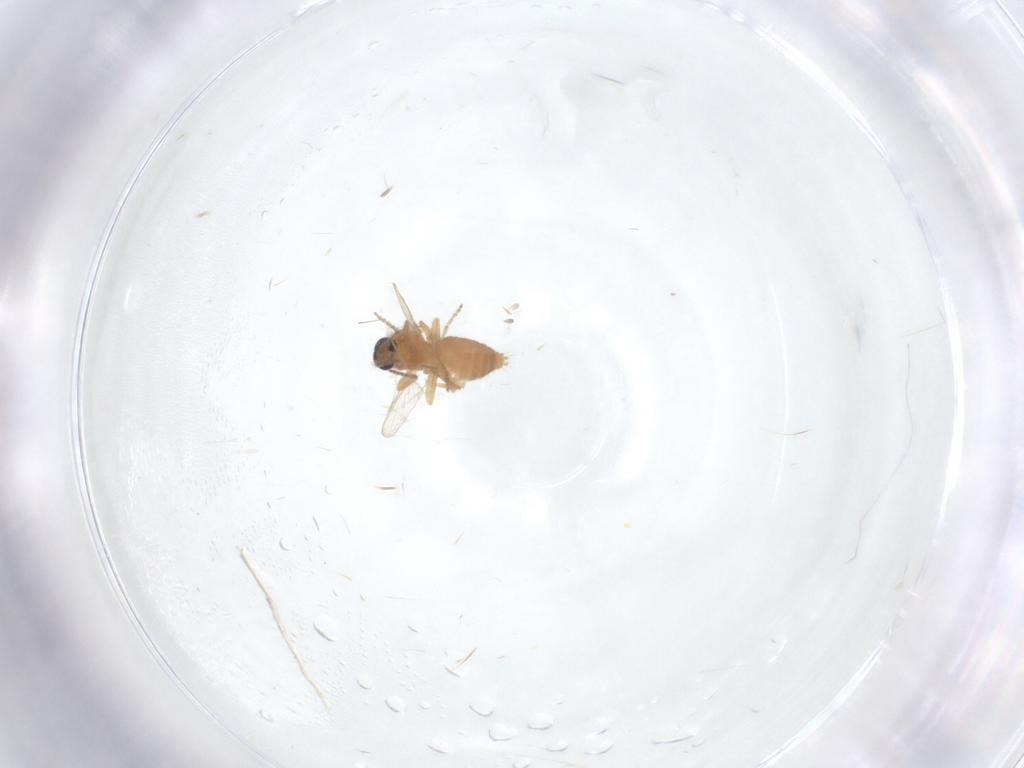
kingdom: Animalia
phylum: Arthropoda
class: Insecta
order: Diptera
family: Ceratopogonidae
